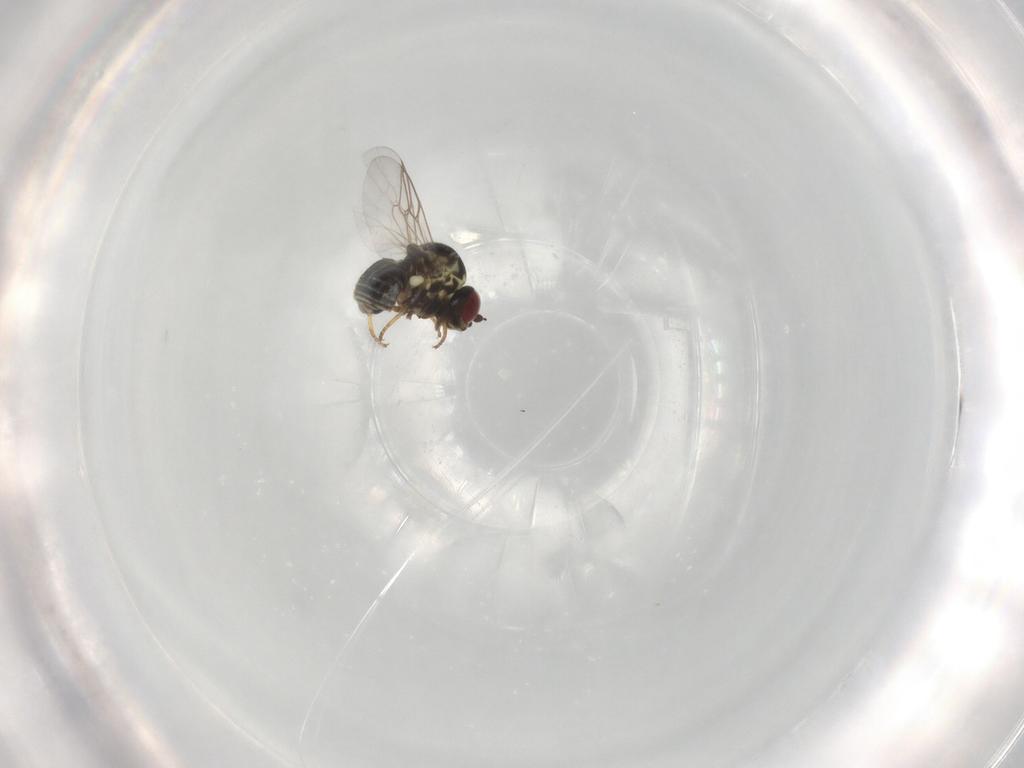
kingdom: Animalia
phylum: Arthropoda
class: Insecta
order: Diptera
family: Bombyliidae
